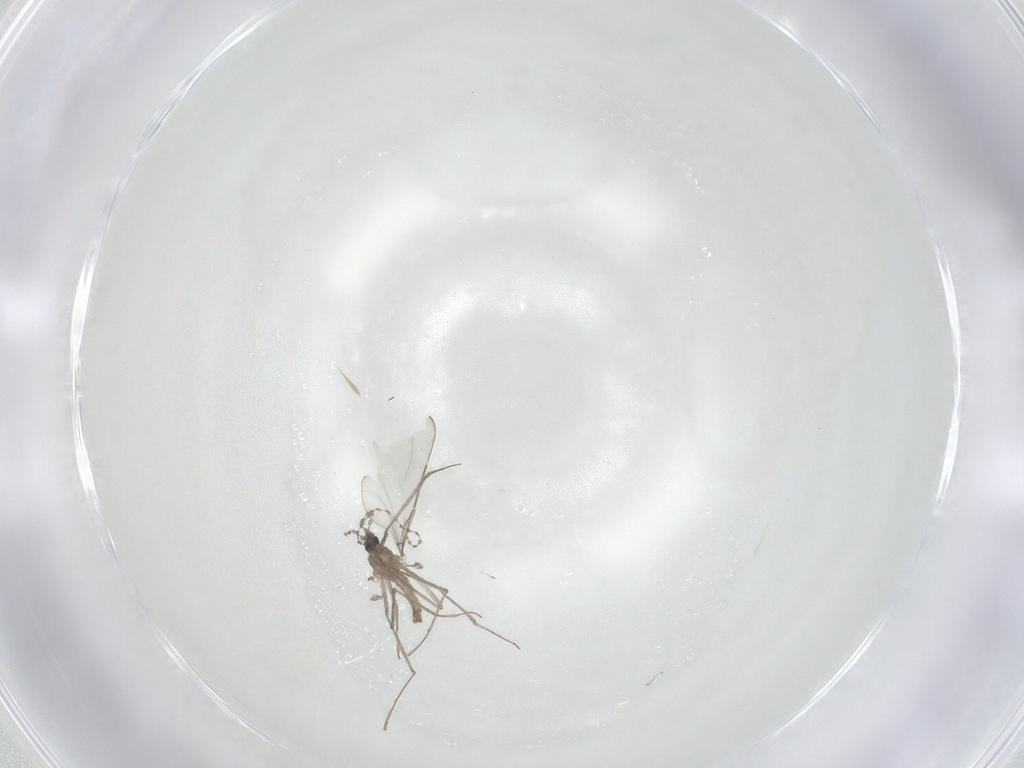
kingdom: Animalia
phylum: Arthropoda
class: Insecta
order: Diptera
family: Cecidomyiidae
